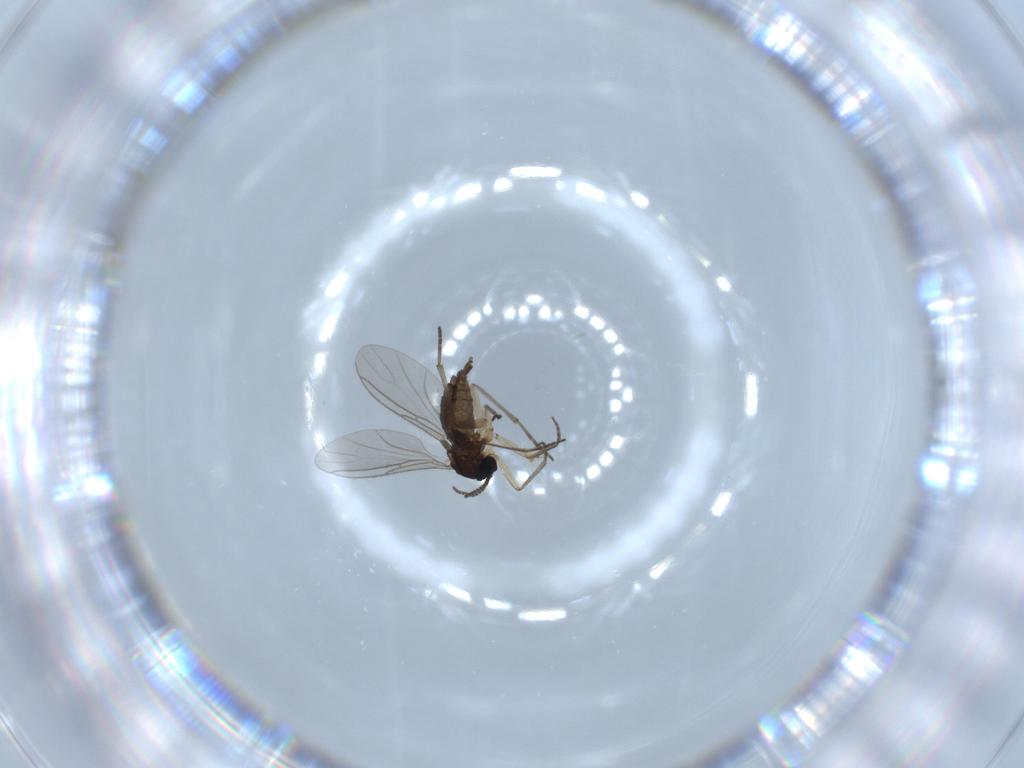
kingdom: Animalia
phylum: Arthropoda
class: Insecta
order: Diptera
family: Sciaridae
